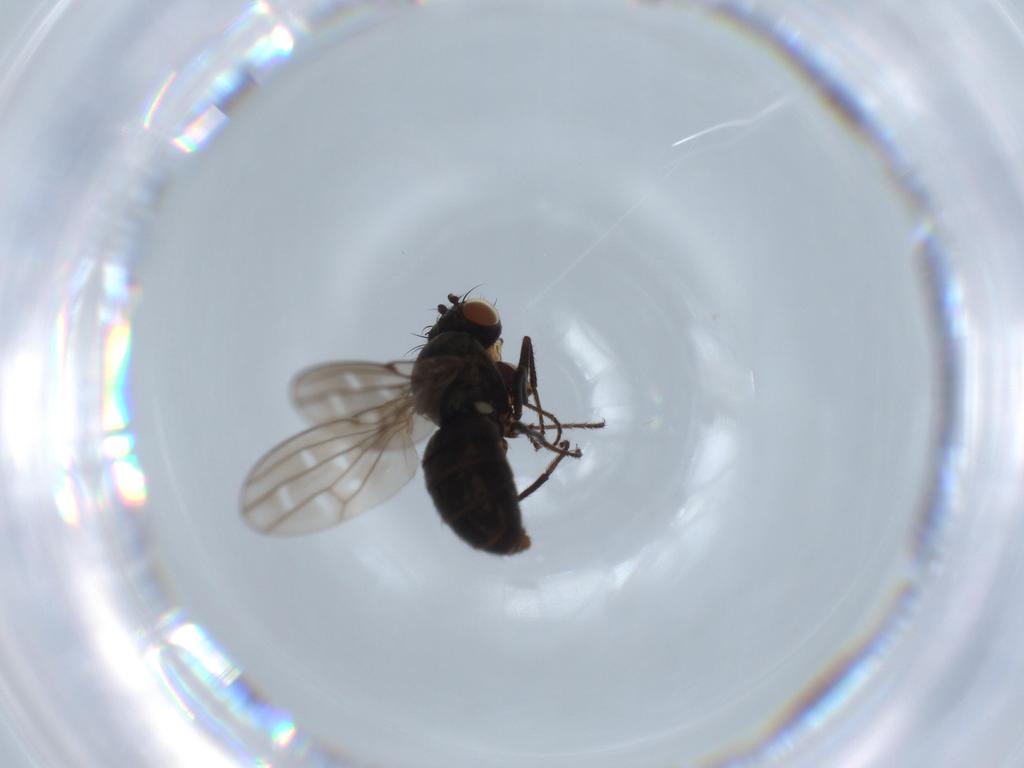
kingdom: Animalia
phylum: Arthropoda
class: Insecta
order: Diptera
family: Ephydridae
